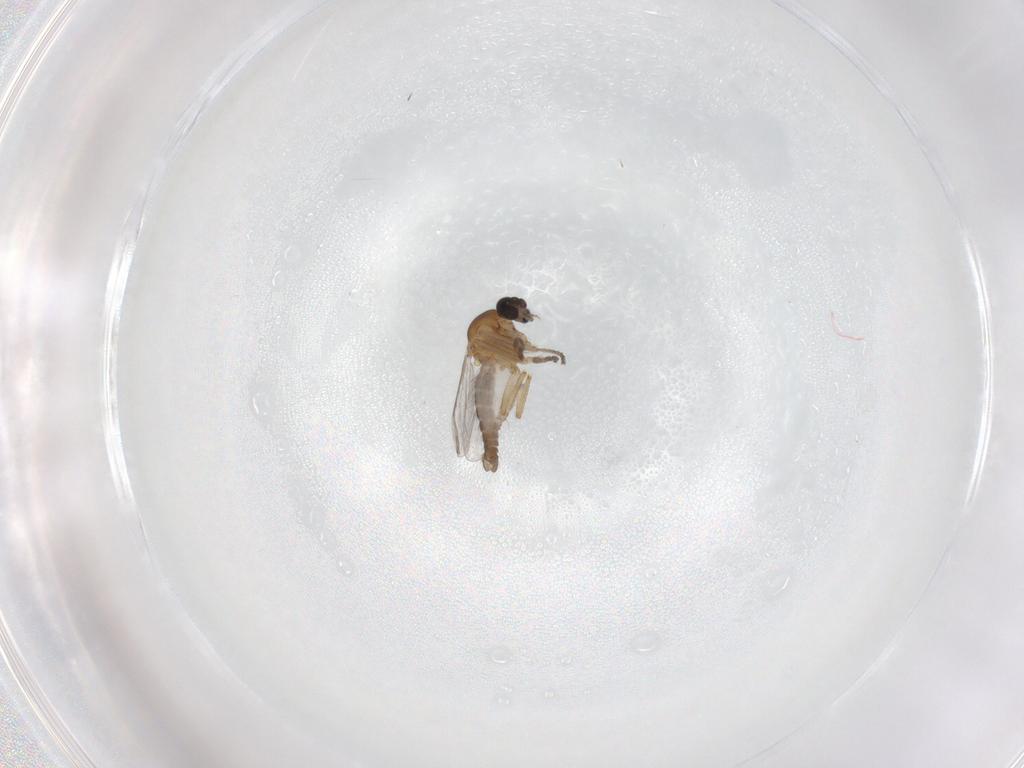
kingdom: Animalia
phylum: Arthropoda
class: Insecta
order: Diptera
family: Ceratopogonidae
